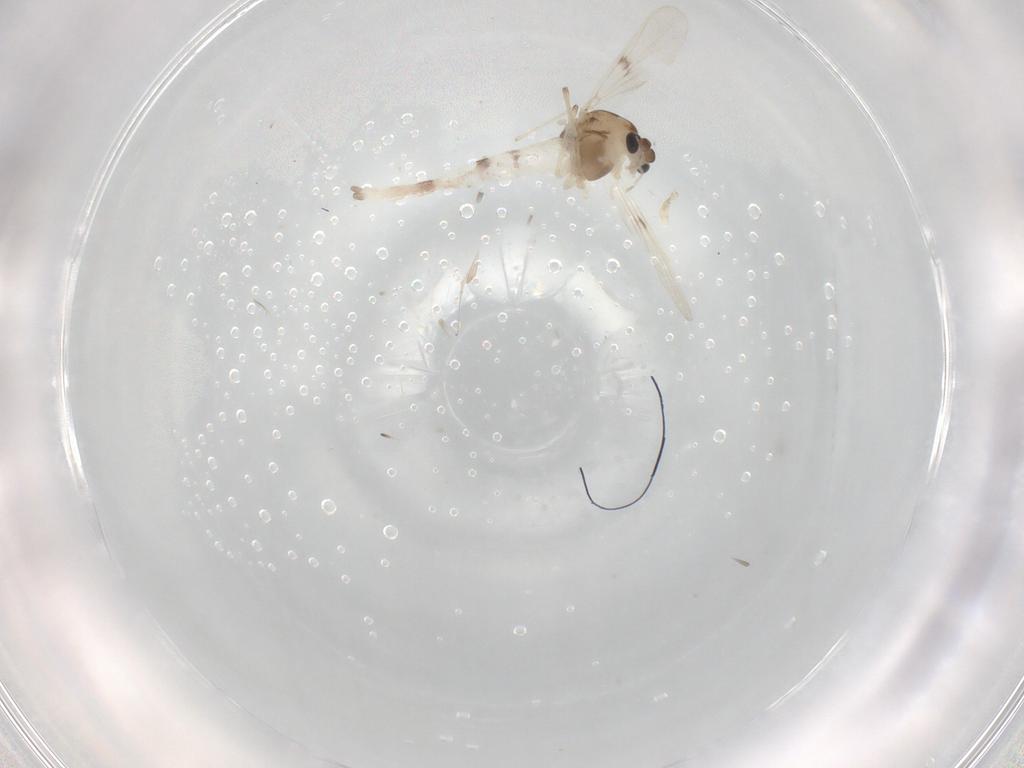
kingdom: Animalia
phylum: Arthropoda
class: Insecta
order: Diptera
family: Chironomidae
